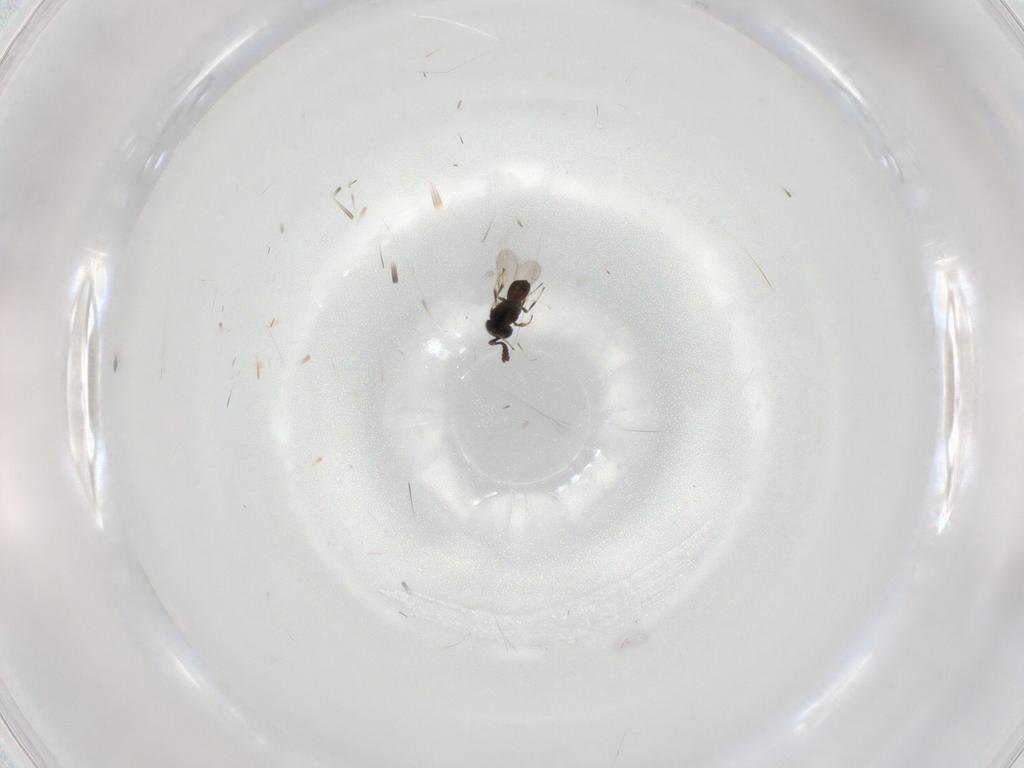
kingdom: Animalia
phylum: Arthropoda
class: Insecta
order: Hymenoptera
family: Scelionidae
